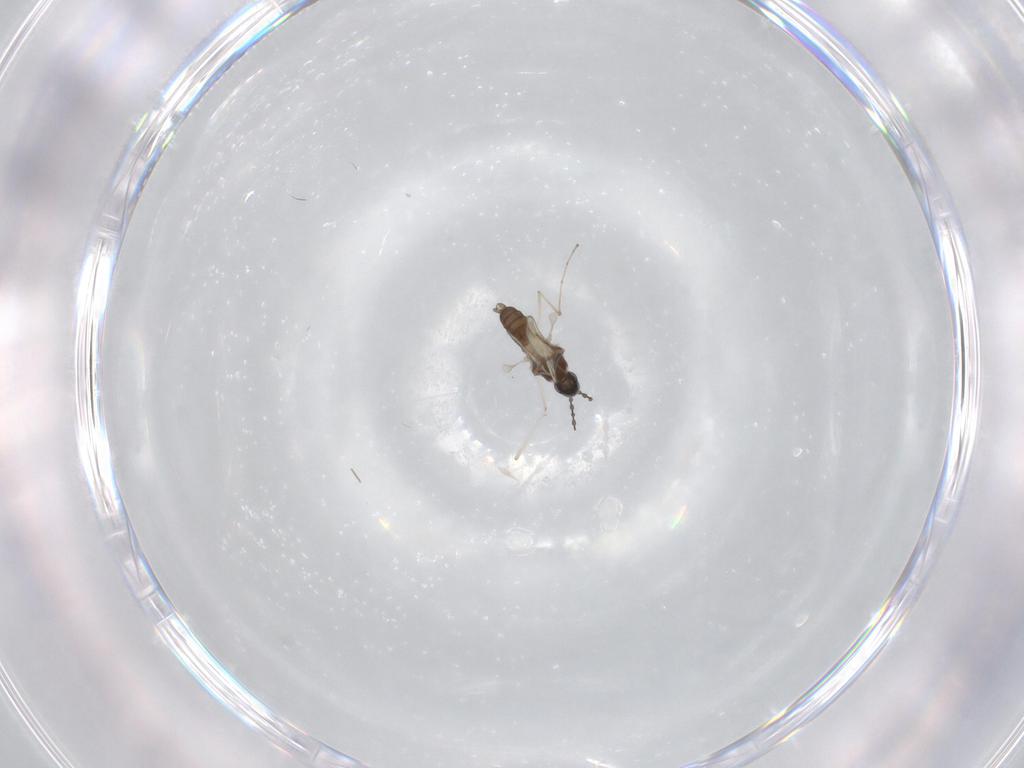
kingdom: Animalia
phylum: Arthropoda
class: Insecta
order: Diptera
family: Cecidomyiidae
